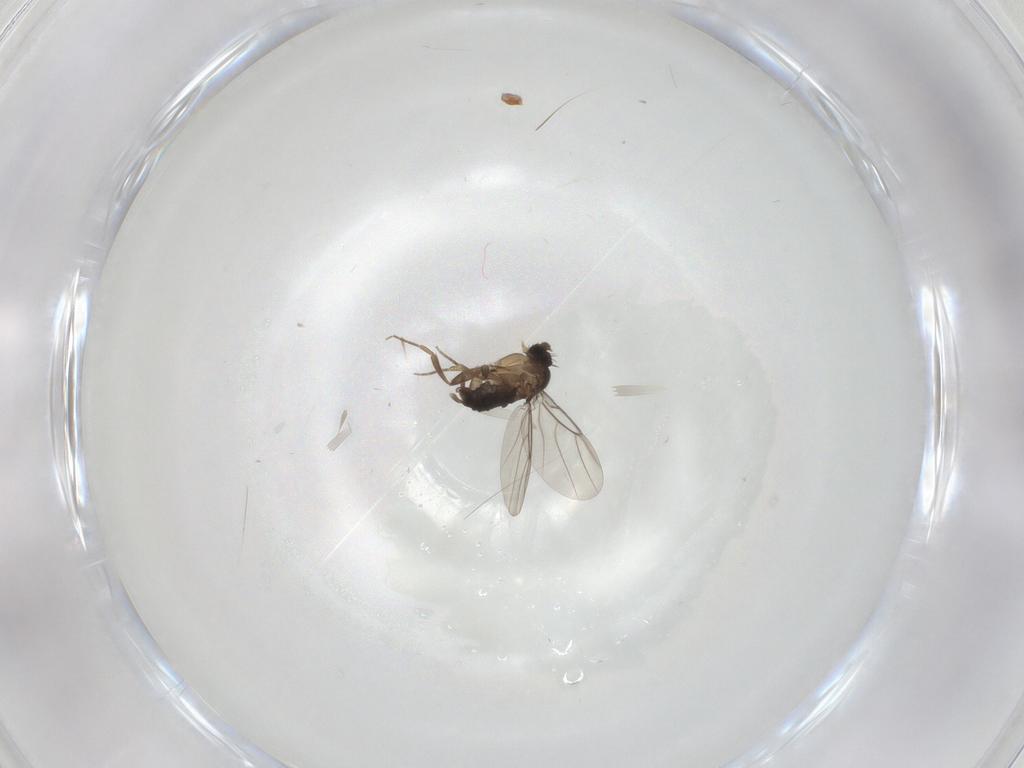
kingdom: Animalia
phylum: Arthropoda
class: Insecta
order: Diptera
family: Phoridae
